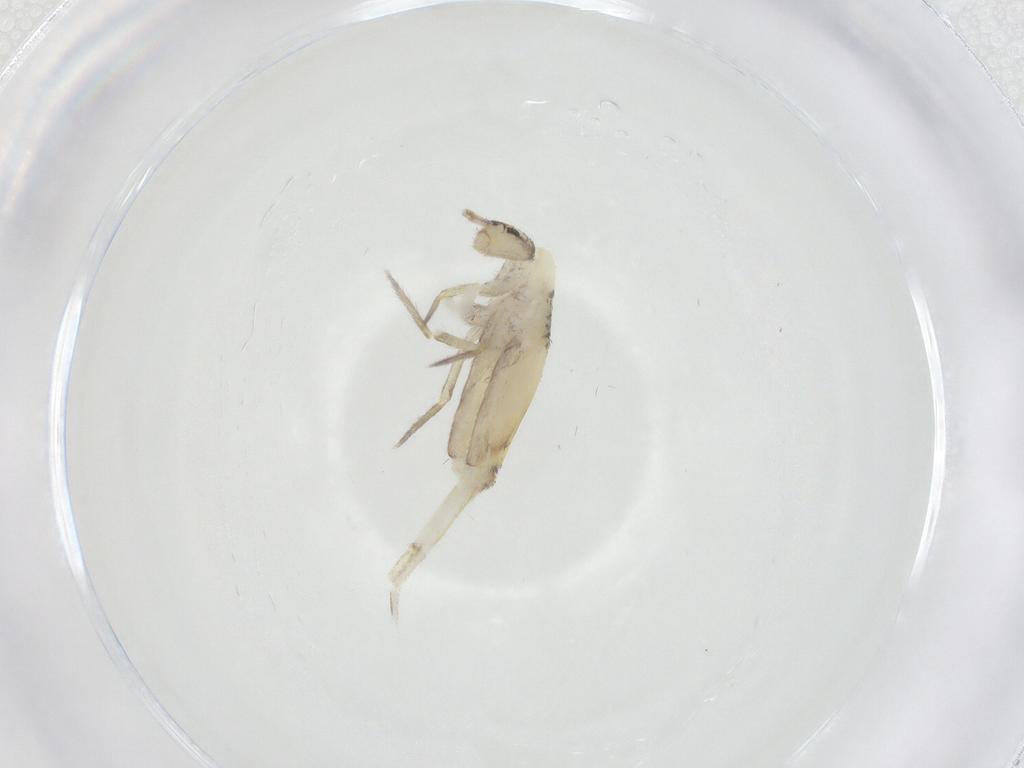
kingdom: Animalia
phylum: Arthropoda
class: Collembola
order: Entomobryomorpha
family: Entomobryidae
